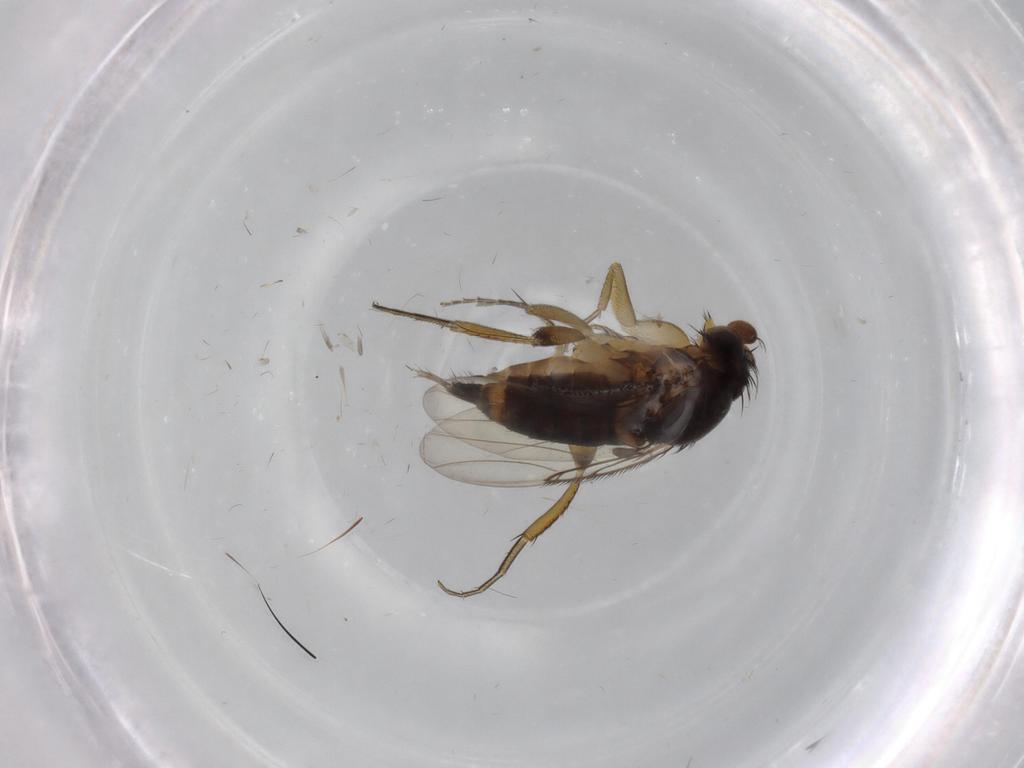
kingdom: Animalia
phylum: Arthropoda
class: Insecta
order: Diptera
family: Phoridae
